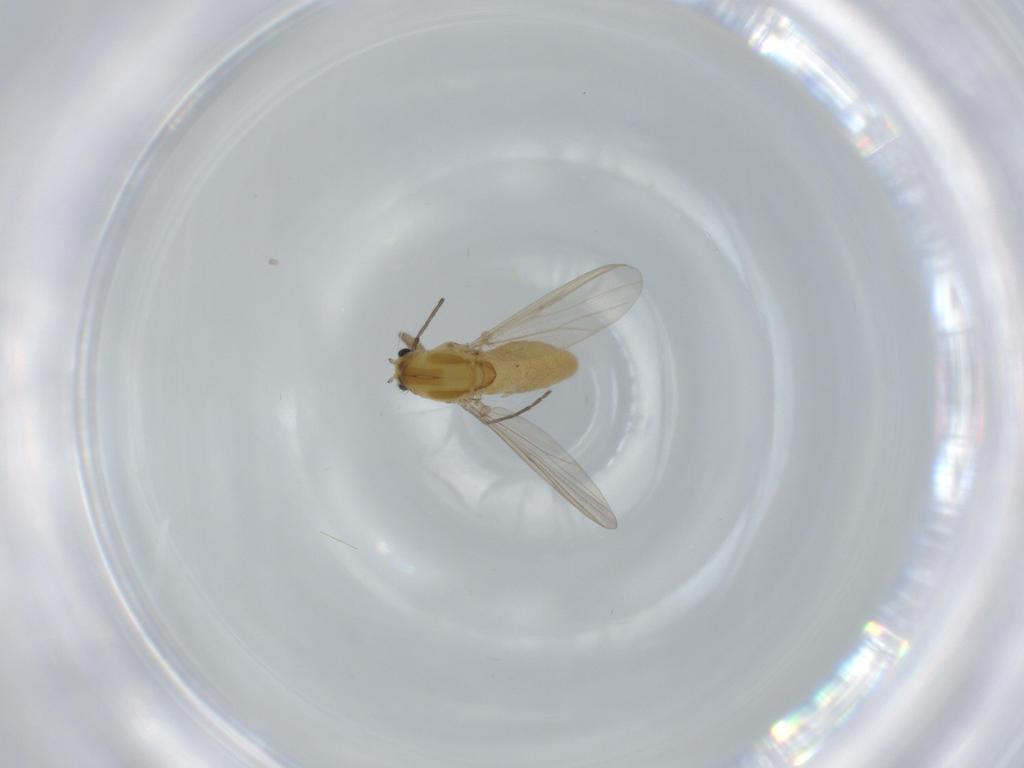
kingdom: Animalia
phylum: Arthropoda
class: Insecta
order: Diptera
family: Chironomidae
